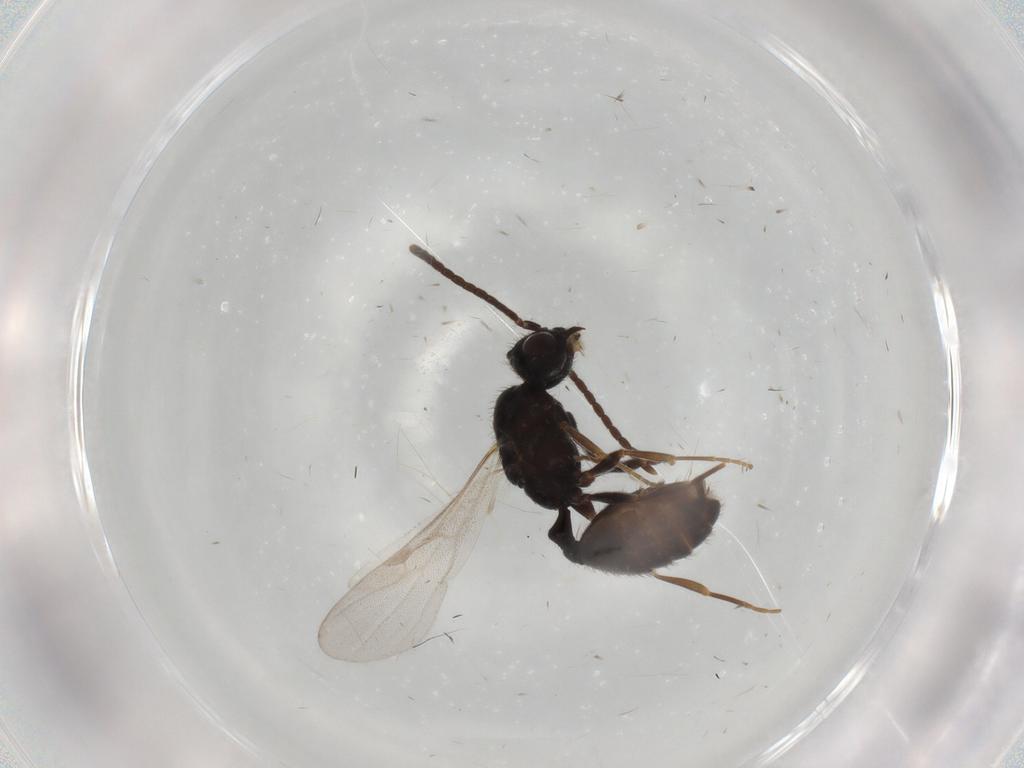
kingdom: Animalia
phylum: Arthropoda
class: Insecta
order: Hymenoptera
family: Formicidae
